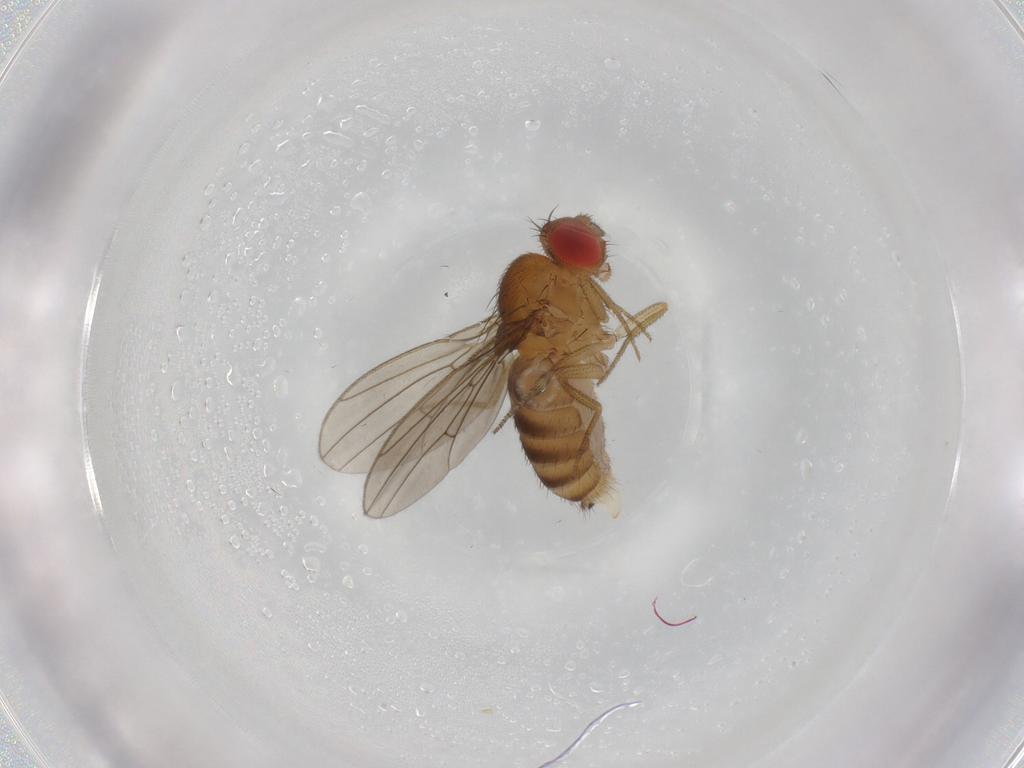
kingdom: Animalia
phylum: Arthropoda
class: Insecta
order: Diptera
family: Drosophilidae
